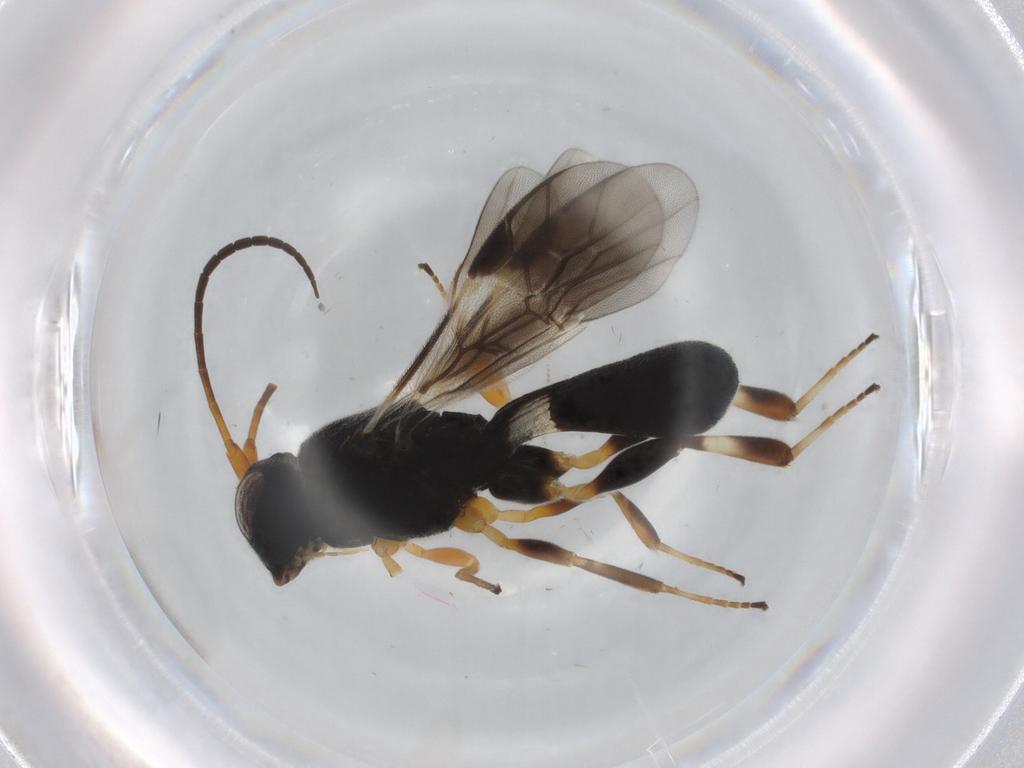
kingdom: Animalia
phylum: Arthropoda
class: Insecta
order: Hymenoptera
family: Braconidae
